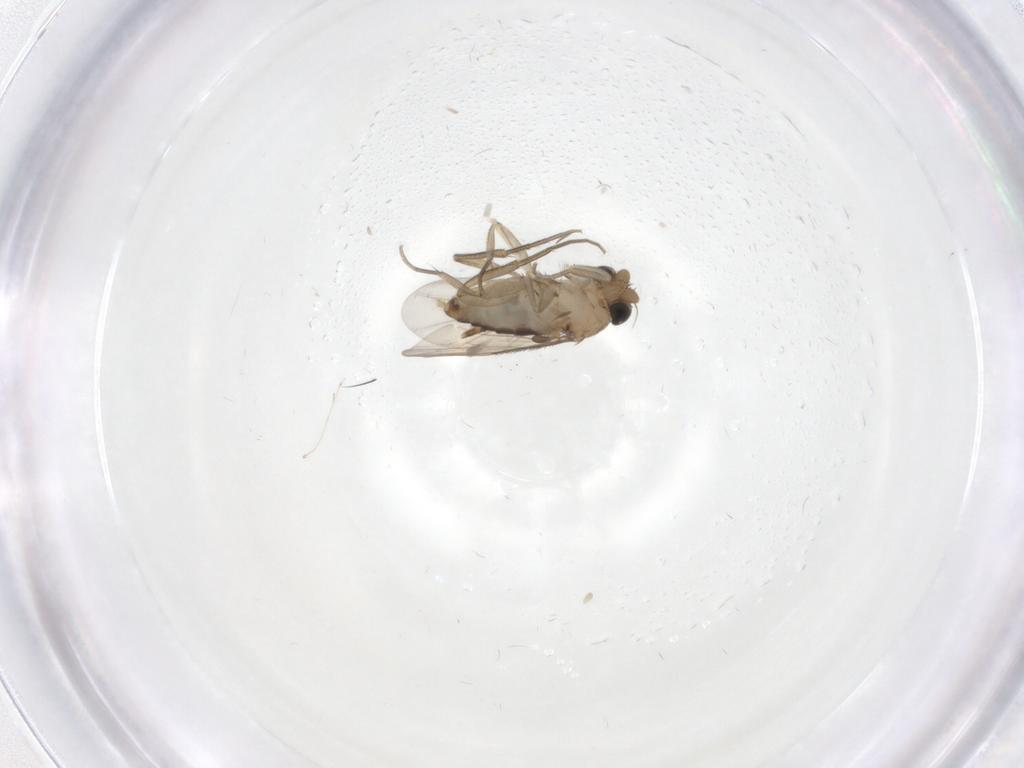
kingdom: Animalia
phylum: Arthropoda
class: Insecta
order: Diptera
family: Phoridae
